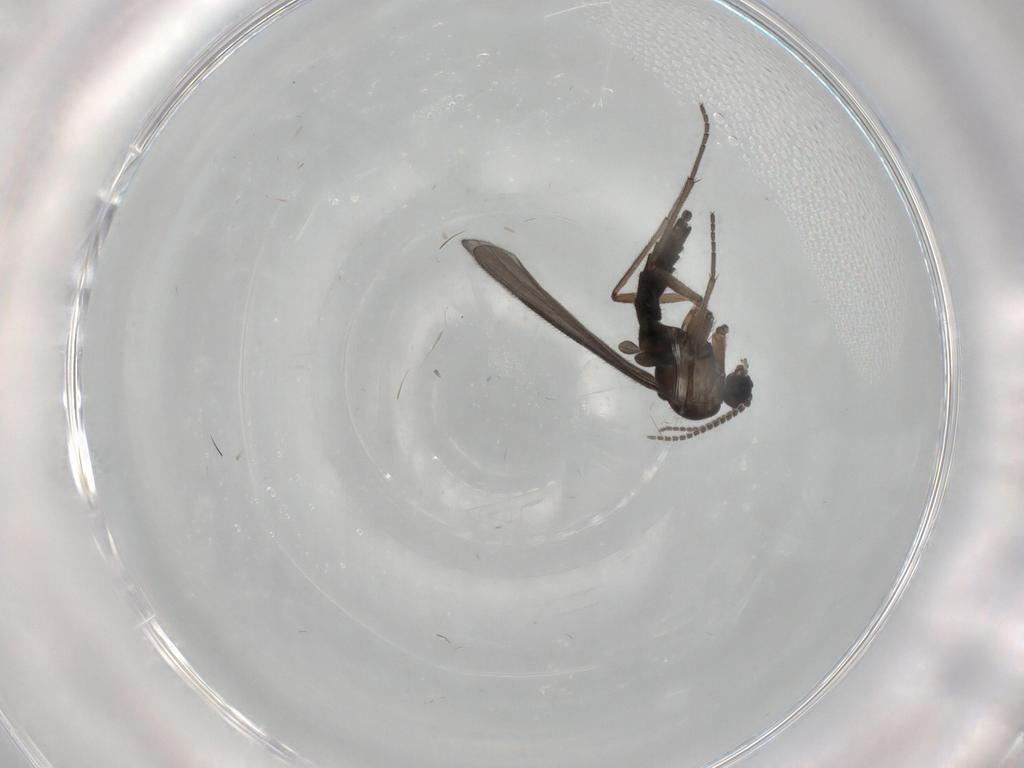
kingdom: Animalia
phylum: Arthropoda
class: Insecta
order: Diptera
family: Sciaridae
